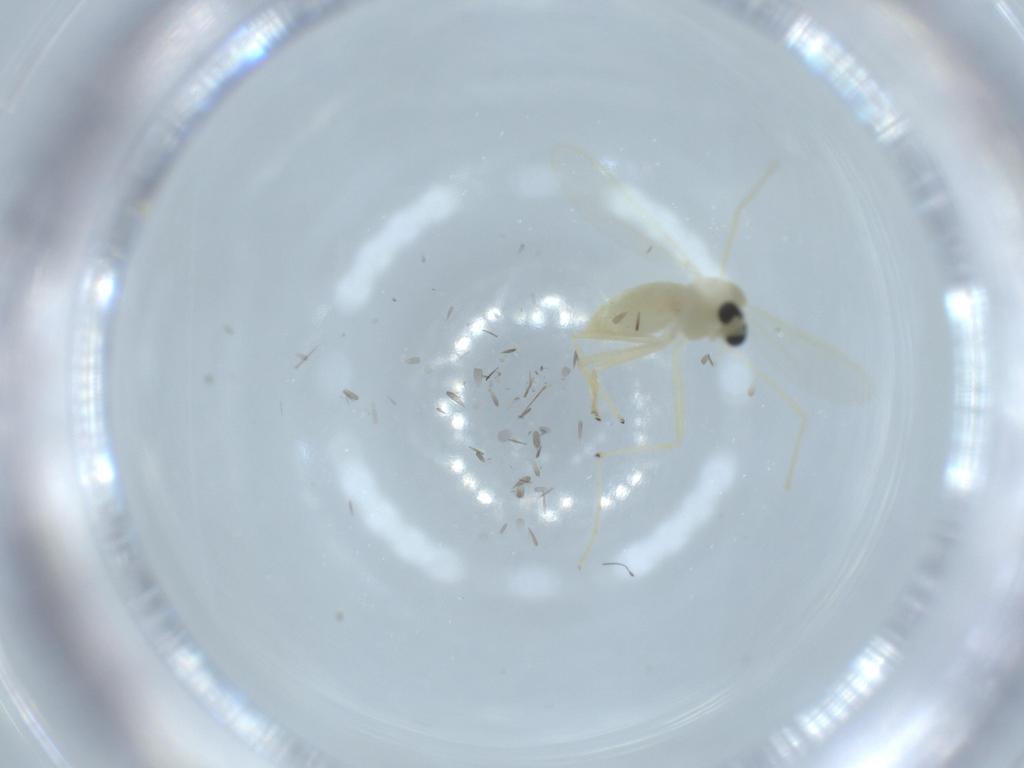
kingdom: Animalia
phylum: Arthropoda
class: Insecta
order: Diptera
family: Chironomidae
